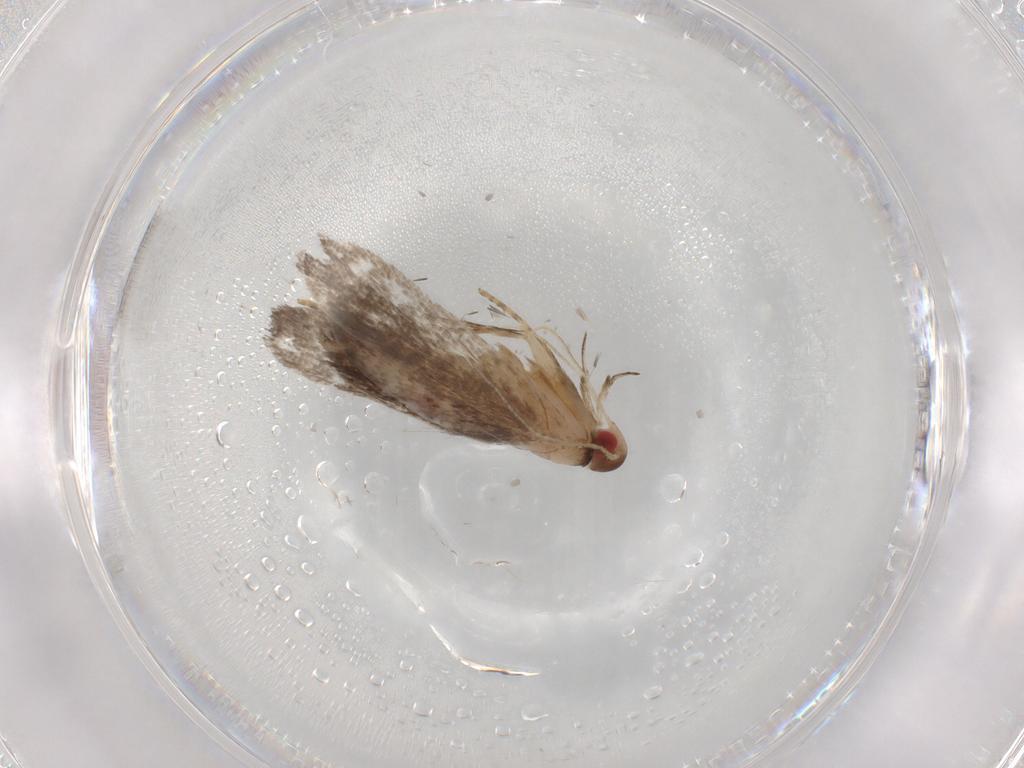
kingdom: Animalia
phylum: Arthropoda
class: Insecta
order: Lepidoptera
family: Gelechiidae
